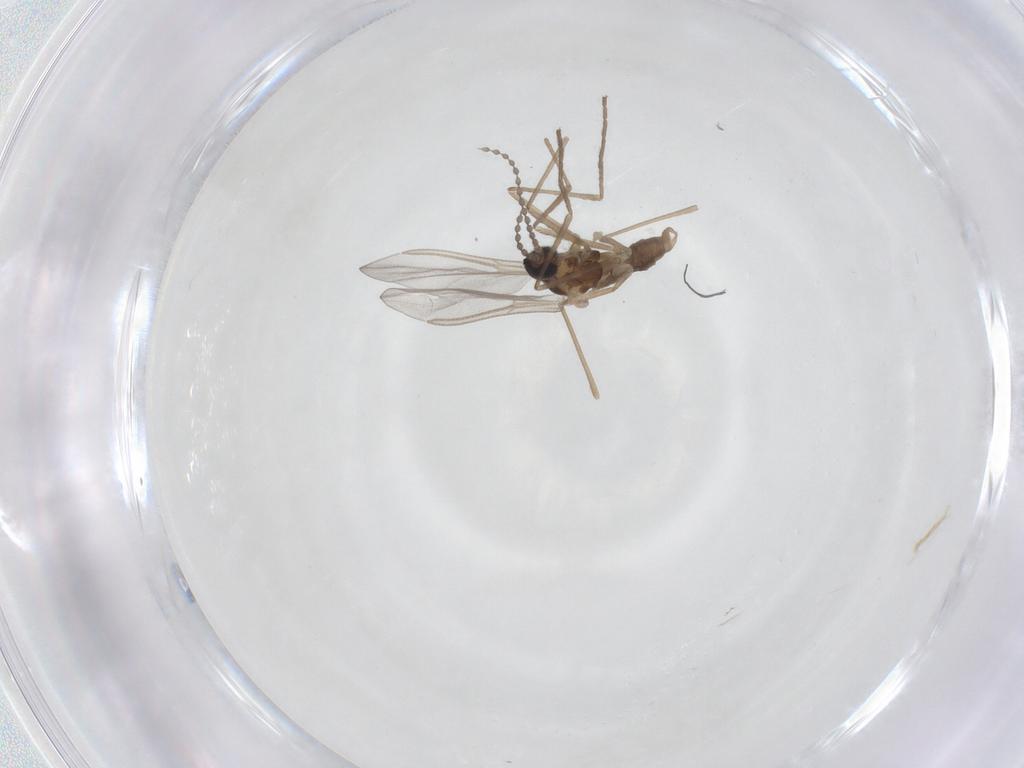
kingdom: Animalia
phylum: Arthropoda
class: Insecta
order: Diptera
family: Cecidomyiidae
